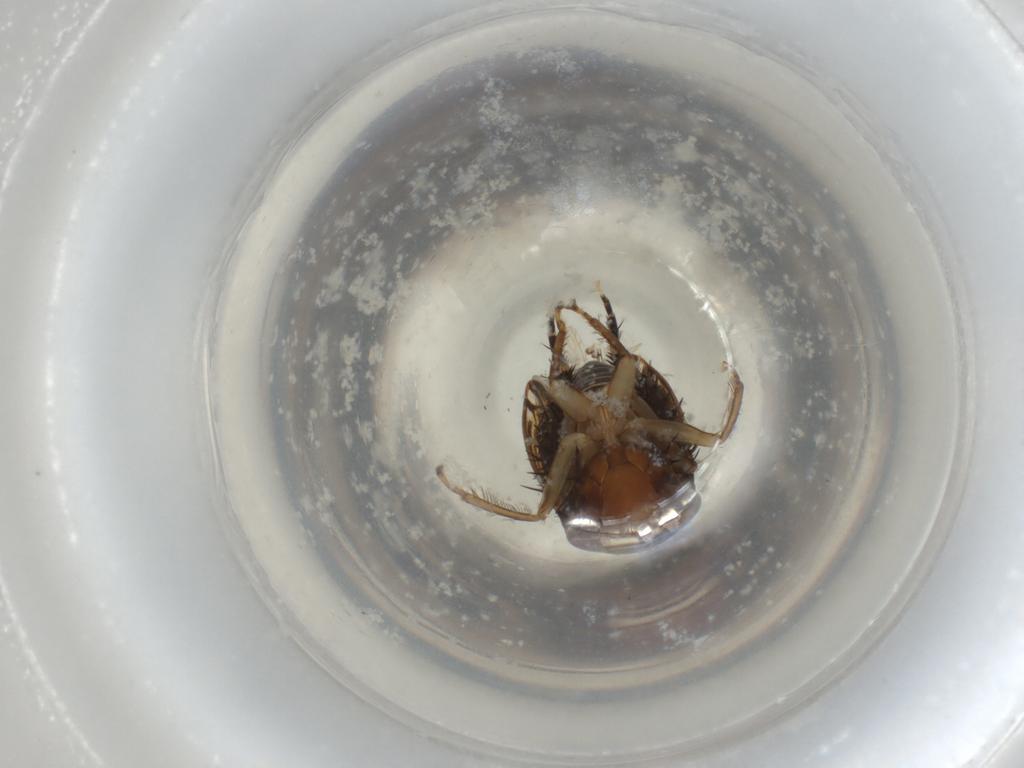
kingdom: Animalia
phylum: Arthropoda
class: Insecta
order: Hemiptera
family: Cicadellidae
